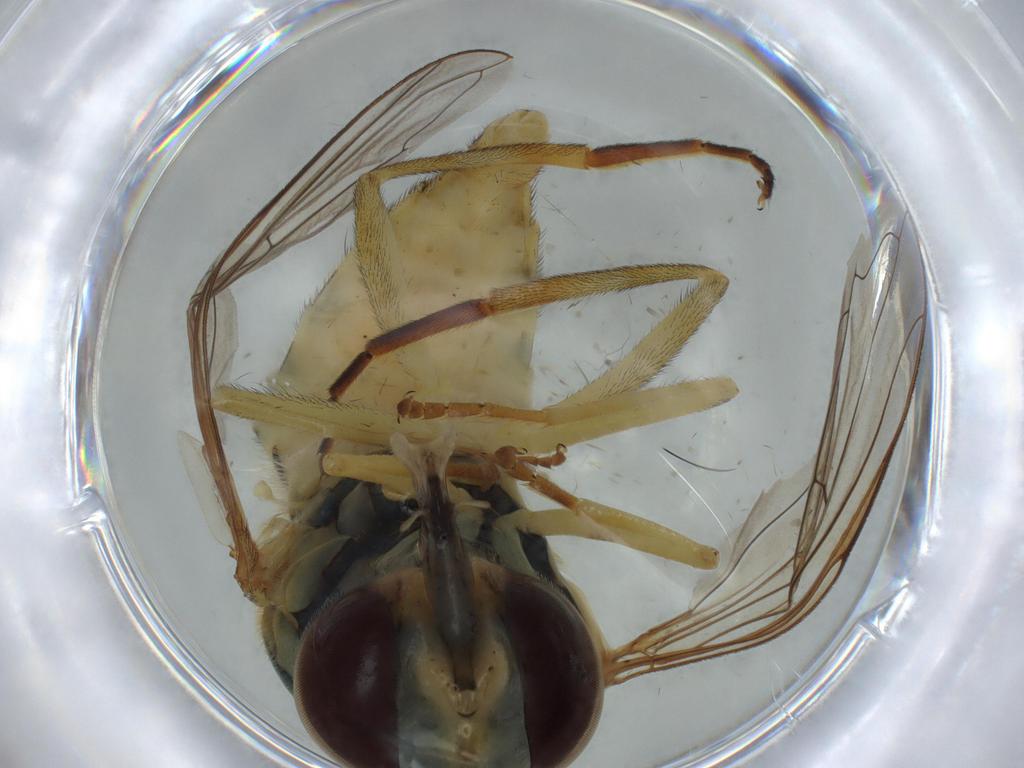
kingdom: Animalia
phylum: Arthropoda
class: Insecta
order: Diptera
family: Syrphidae
